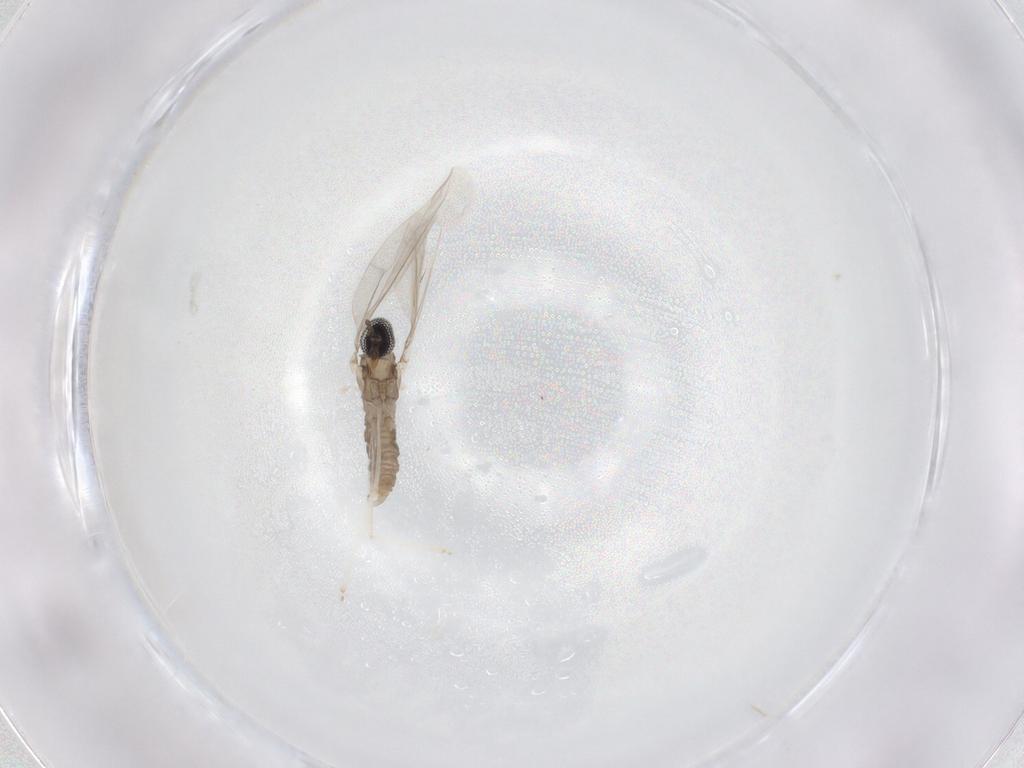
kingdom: Animalia
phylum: Arthropoda
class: Insecta
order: Diptera
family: Cecidomyiidae
